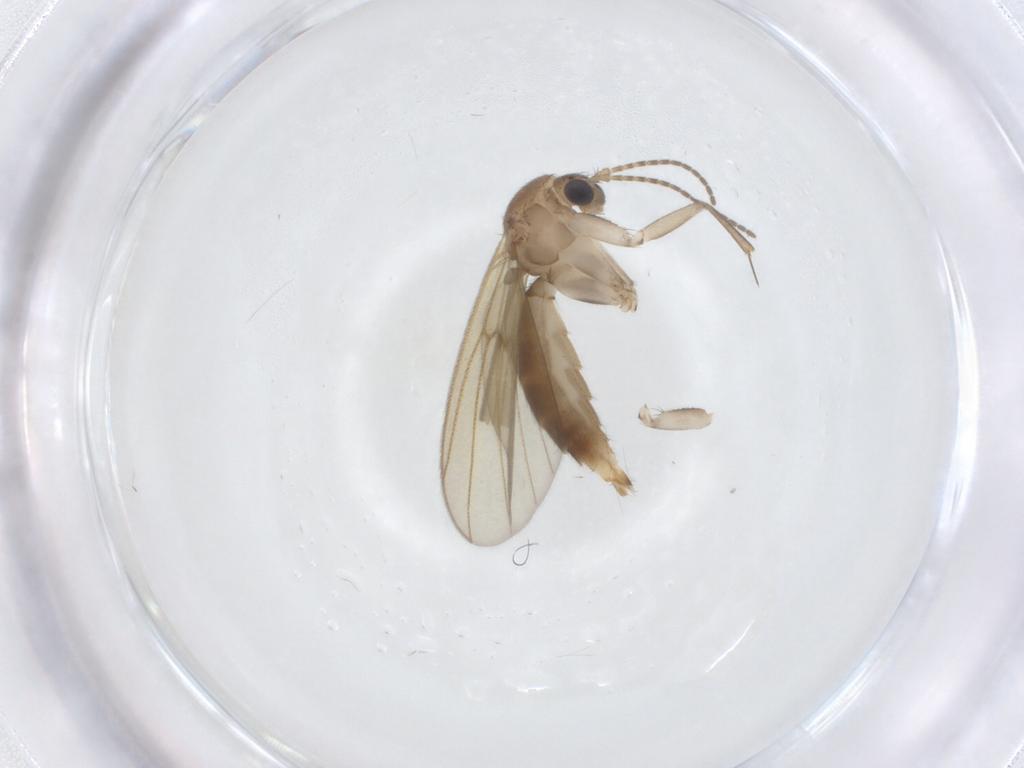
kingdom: Animalia
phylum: Arthropoda
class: Insecta
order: Diptera
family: Mycetophilidae
